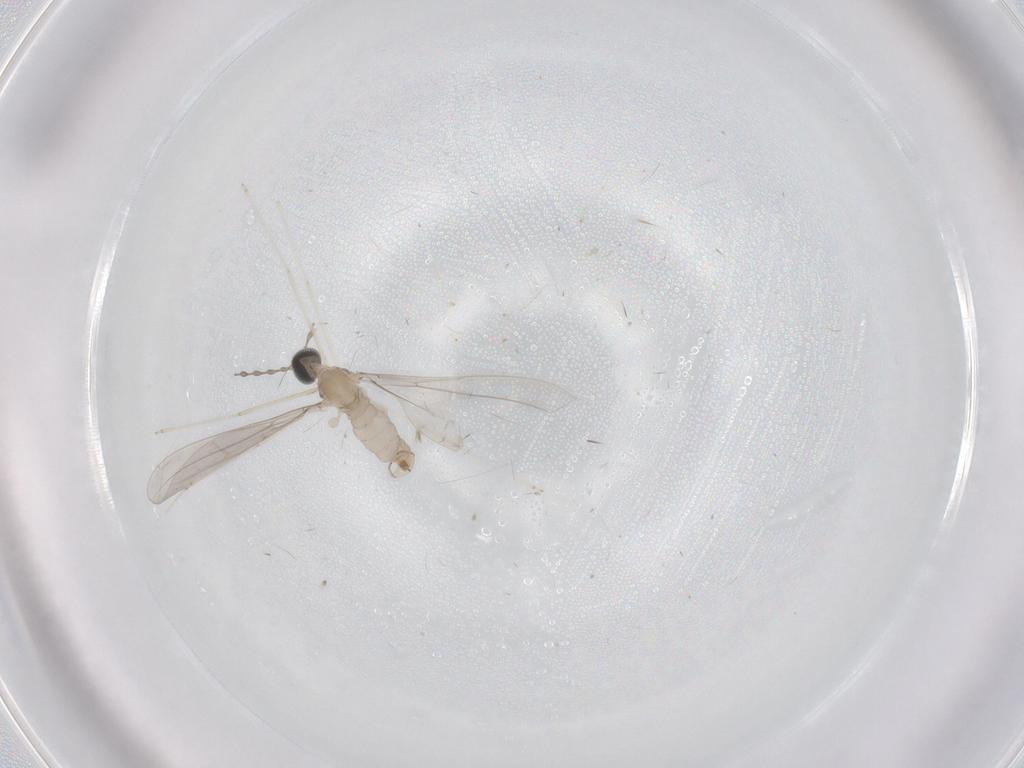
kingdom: Animalia
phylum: Arthropoda
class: Insecta
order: Diptera
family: Cecidomyiidae
